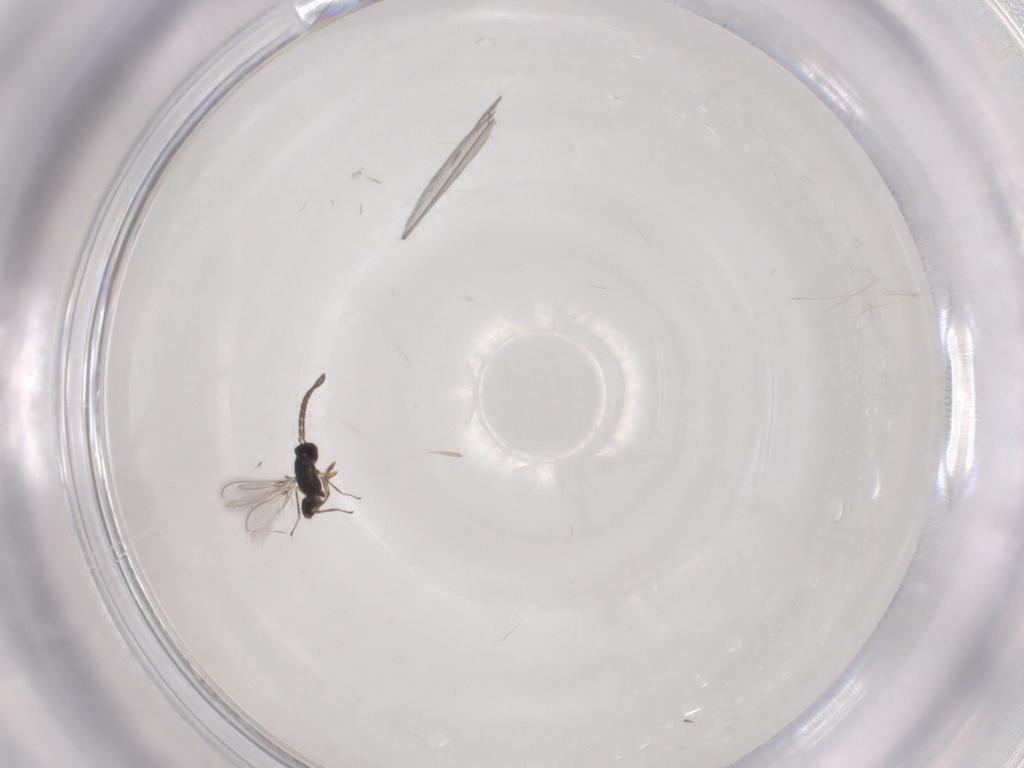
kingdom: Animalia
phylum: Arthropoda
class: Insecta
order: Hymenoptera
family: Mymaridae
